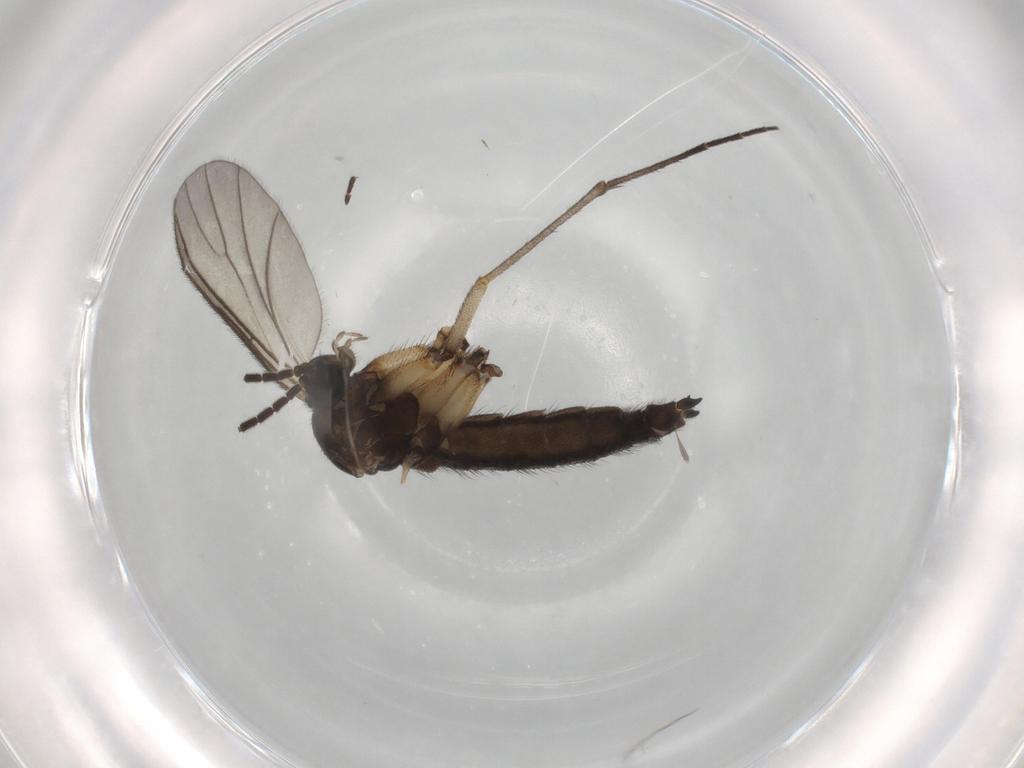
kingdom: Animalia
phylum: Arthropoda
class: Insecta
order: Diptera
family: Sciaridae
